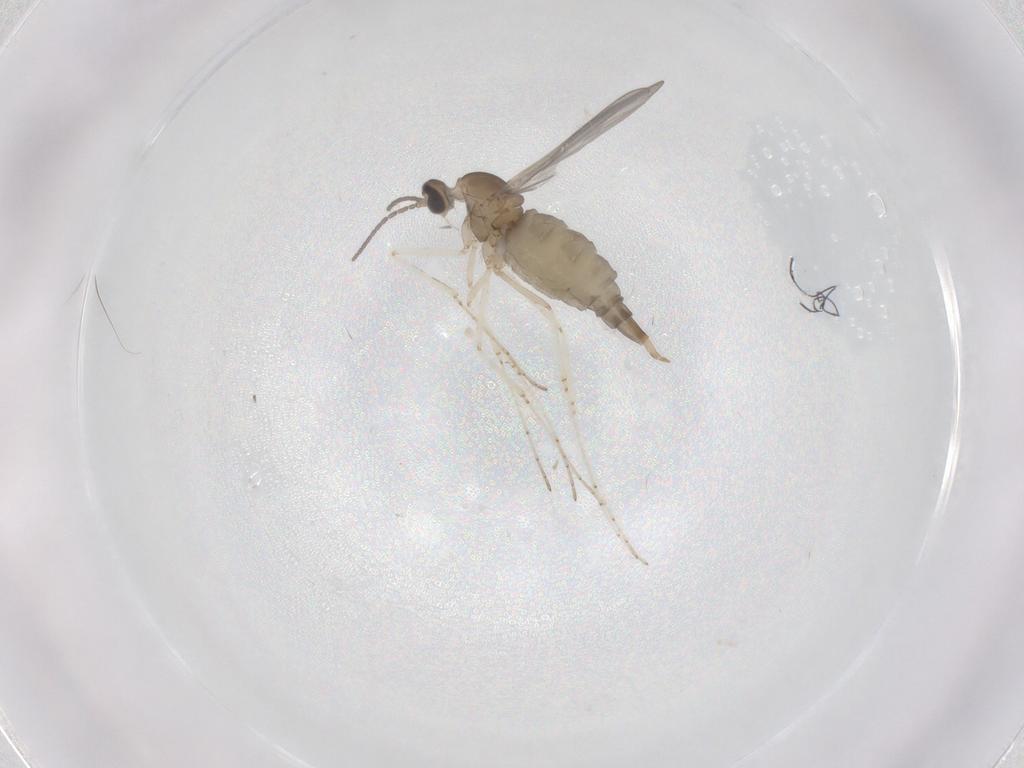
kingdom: Animalia
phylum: Arthropoda
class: Insecta
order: Diptera
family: Cecidomyiidae
